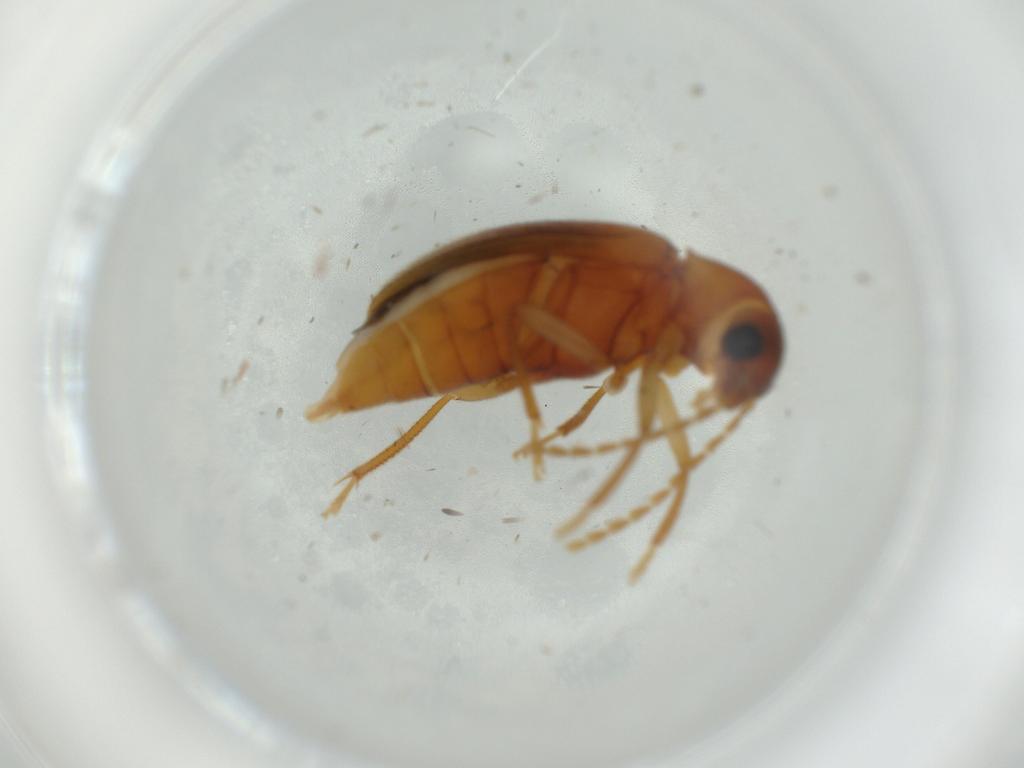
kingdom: Animalia
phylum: Arthropoda
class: Insecta
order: Coleoptera
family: Ptilodactylidae
